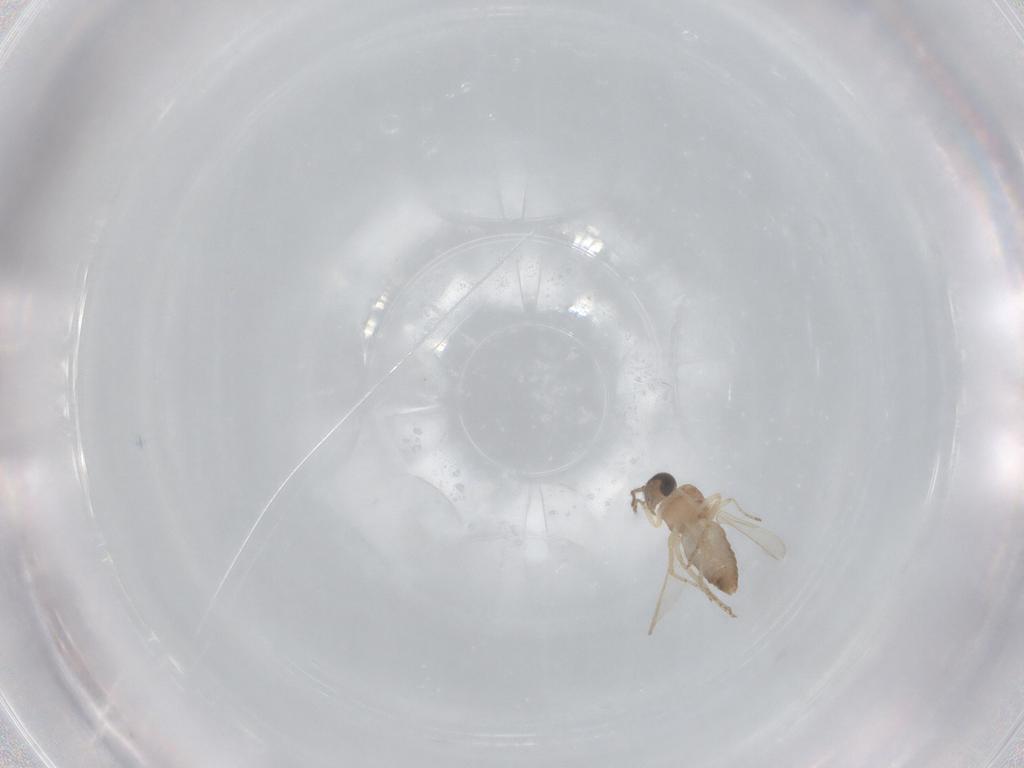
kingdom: Animalia
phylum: Arthropoda
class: Insecta
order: Diptera
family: Ceratopogonidae
